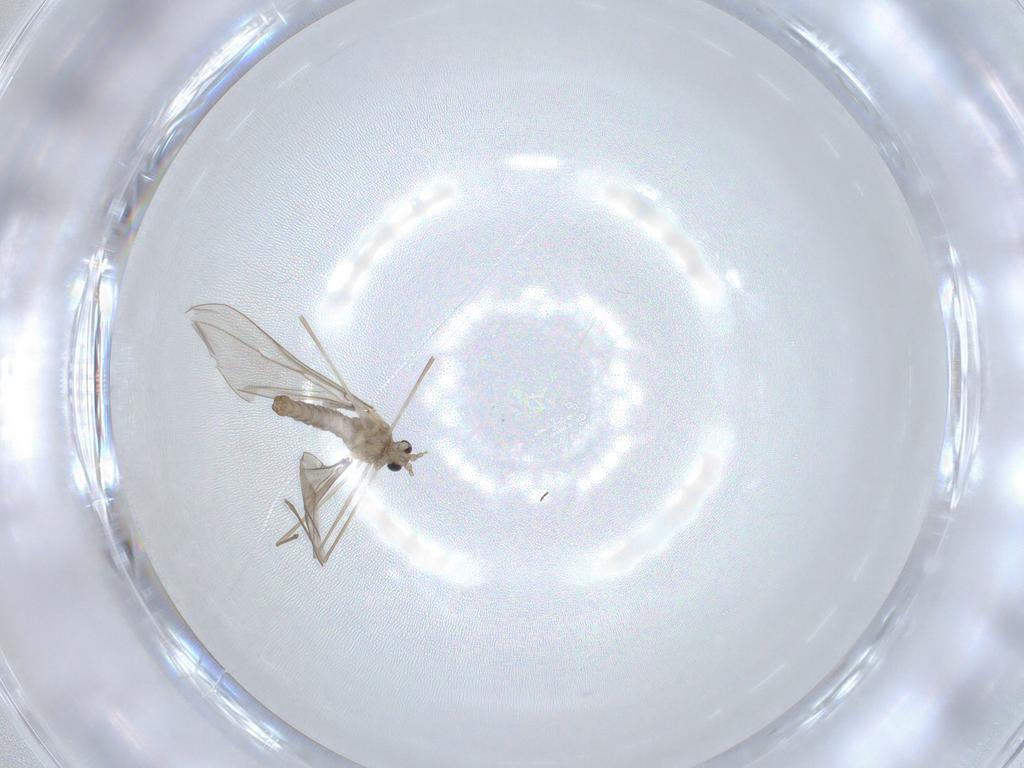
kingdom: Animalia
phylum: Arthropoda
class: Insecta
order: Diptera
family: Cecidomyiidae
